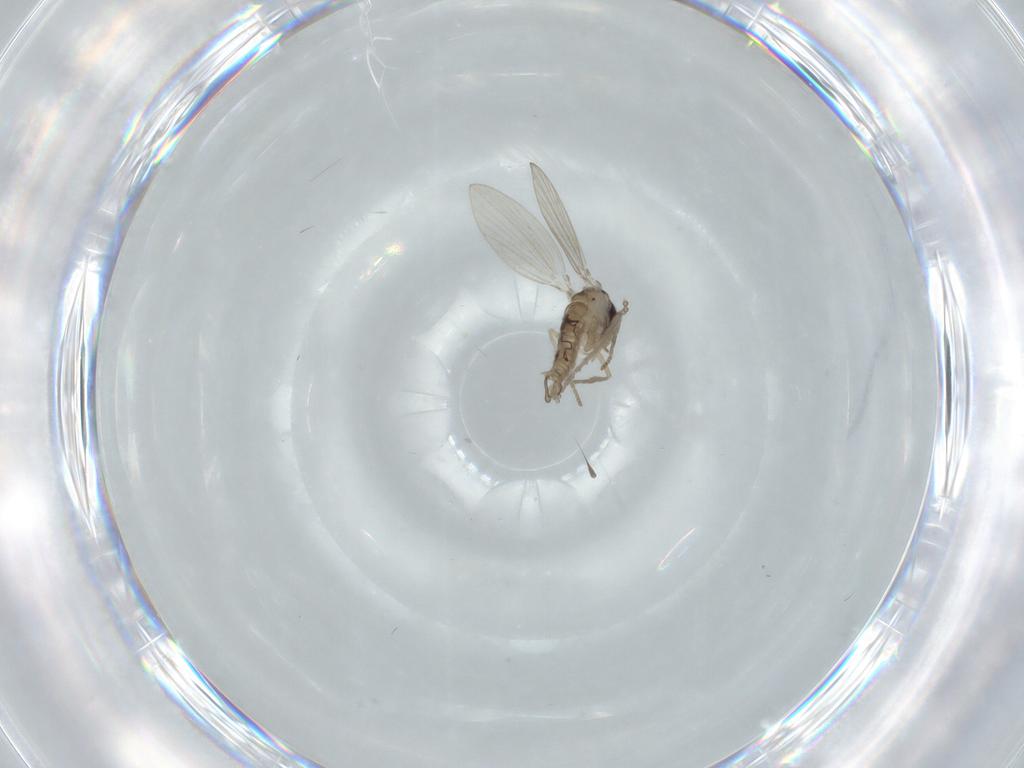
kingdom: Animalia
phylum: Arthropoda
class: Insecta
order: Diptera
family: Psychodidae
